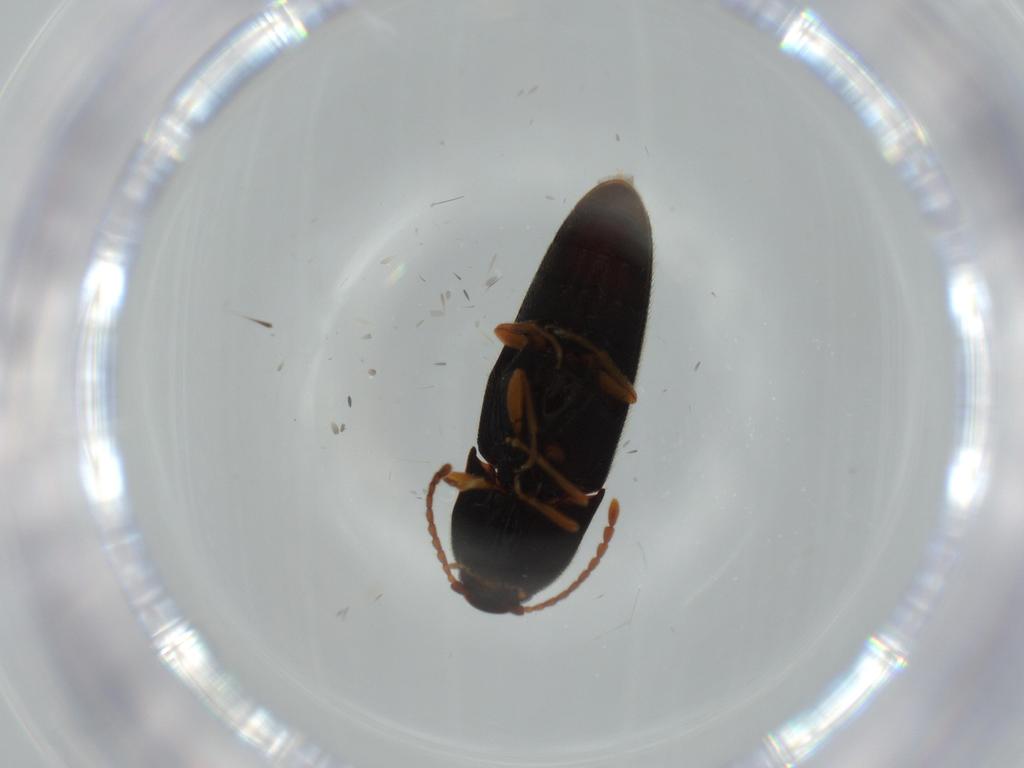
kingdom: Animalia
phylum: Arthropoda
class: Insecta
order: Coleoptera
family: Elateridae
